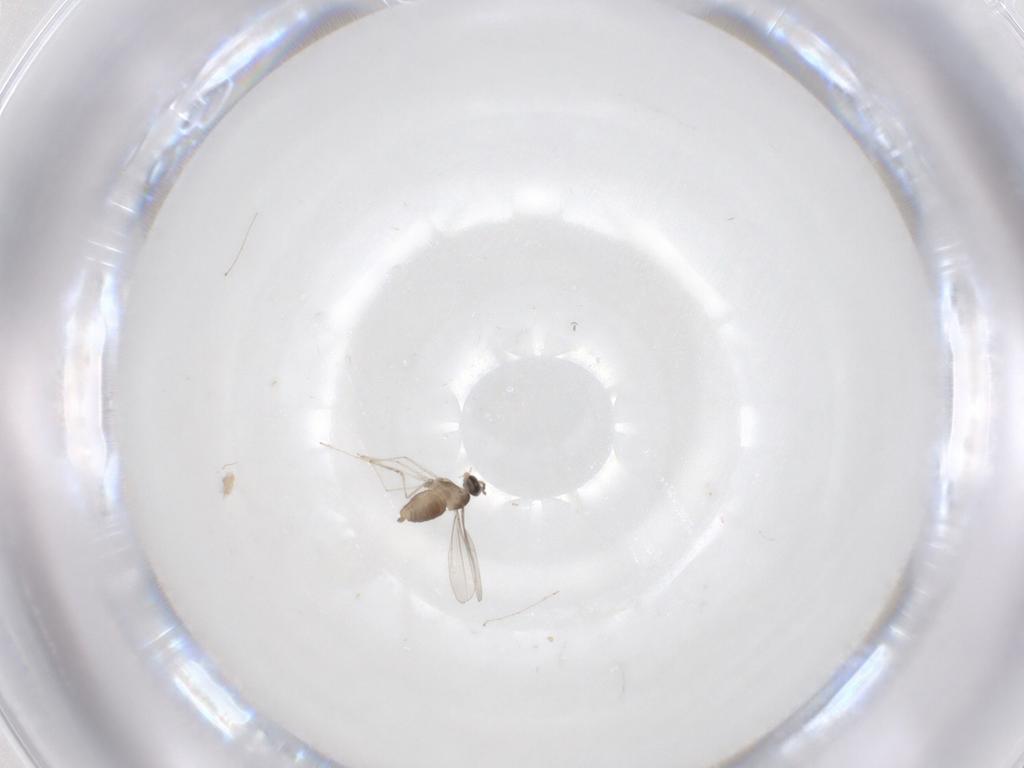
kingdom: Animalia
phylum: Arthropoda
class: Insecta
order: Diptera
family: Cecidomyiidae
